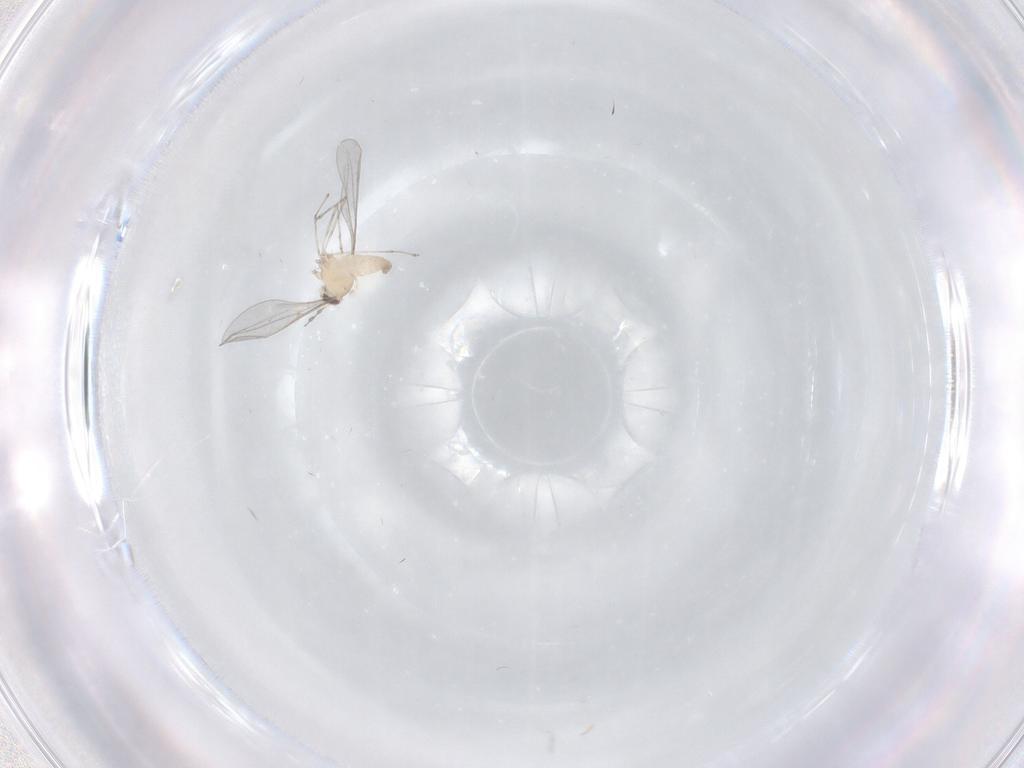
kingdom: Animalia
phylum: Arthropoda
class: Insecta
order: Diptera
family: Cecidomyiidae
